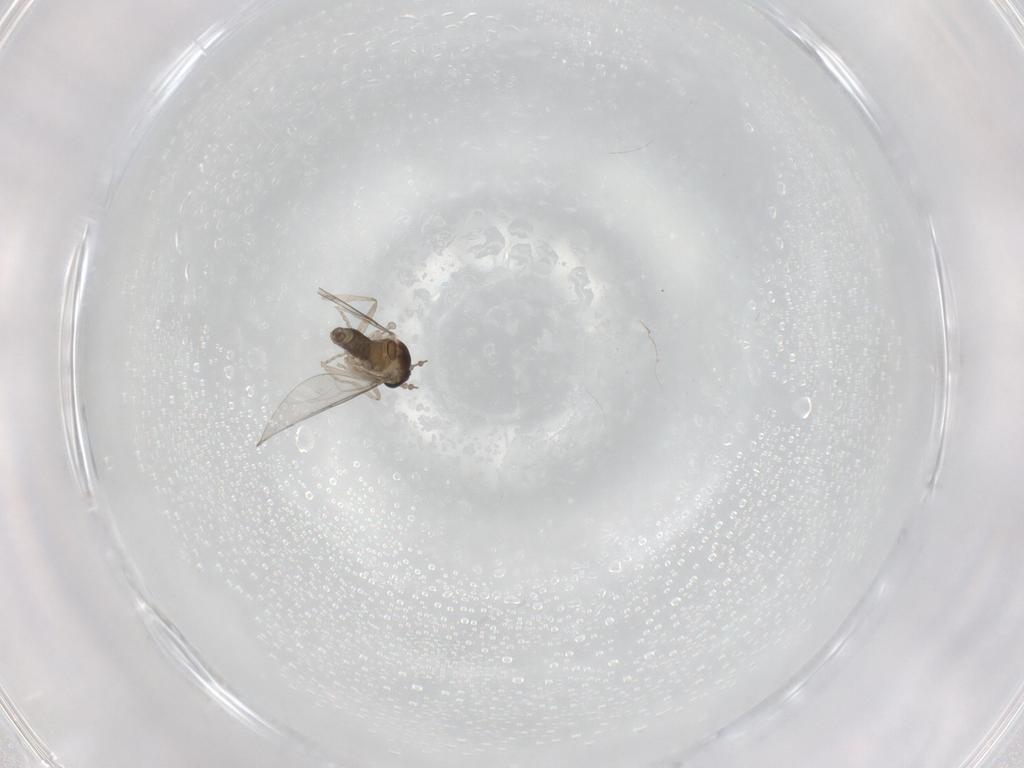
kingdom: Animalia
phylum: Arthropoda
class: Insecta
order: Diptera
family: Chironomidae
